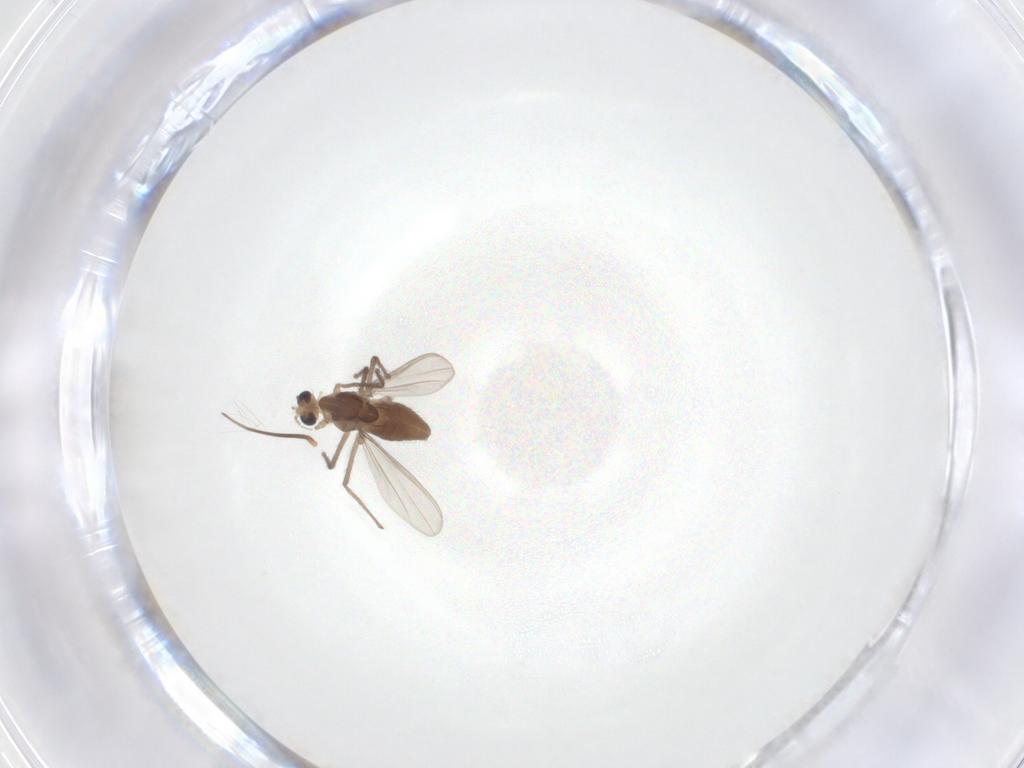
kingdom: Animalia
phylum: Arthropoda
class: Insecta
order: Diptera
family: Chironomidae
